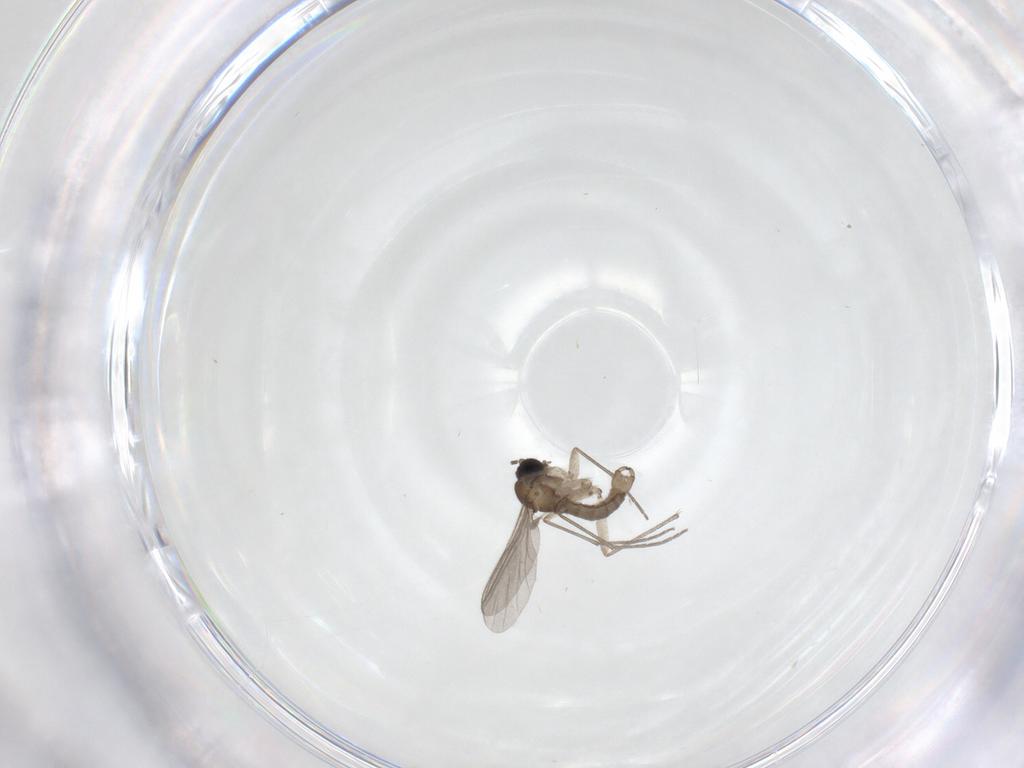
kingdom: Animalia
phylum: Arthropoda
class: Insecta
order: Diptera
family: Sciaridae
